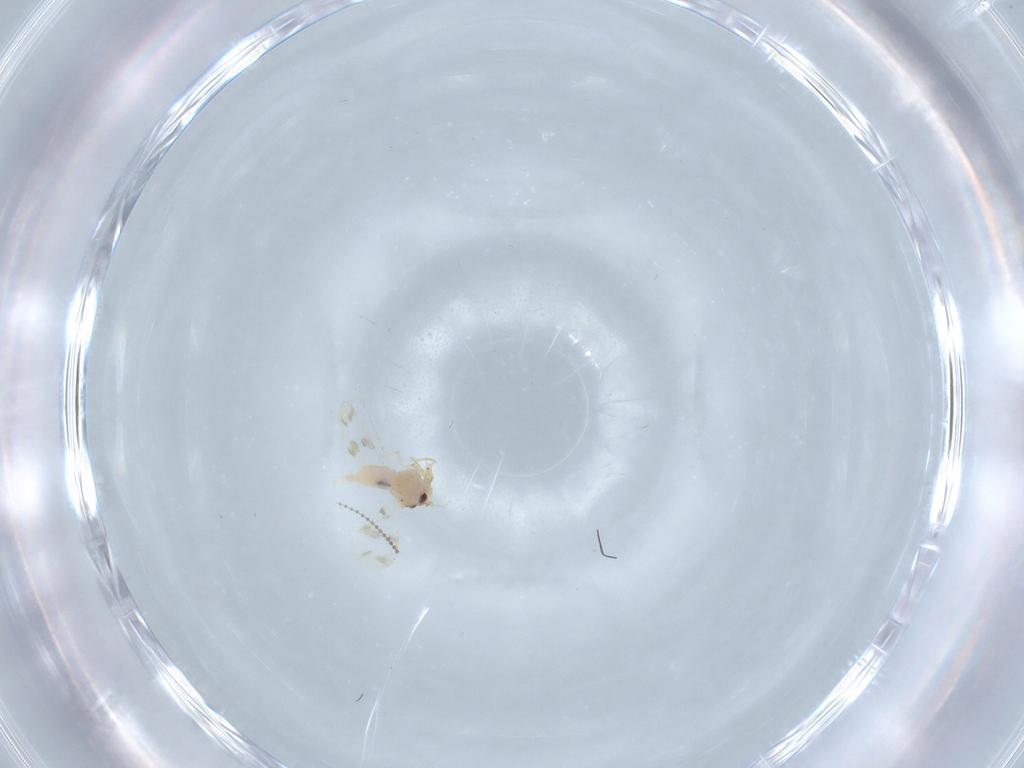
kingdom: Animalia
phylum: Arthropoda
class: Insecta
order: Hemiptera
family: Aleyrodidae
